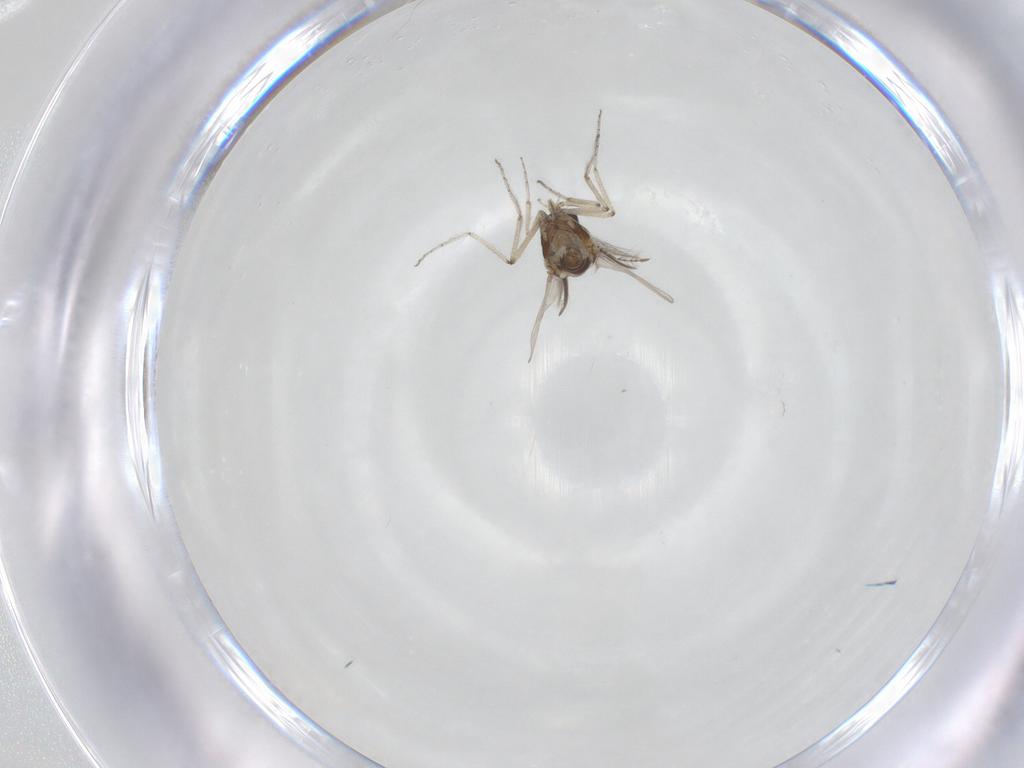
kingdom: Animalia
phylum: Arthropoda
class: Insecta
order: Diptera
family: Ceratopogonidae
